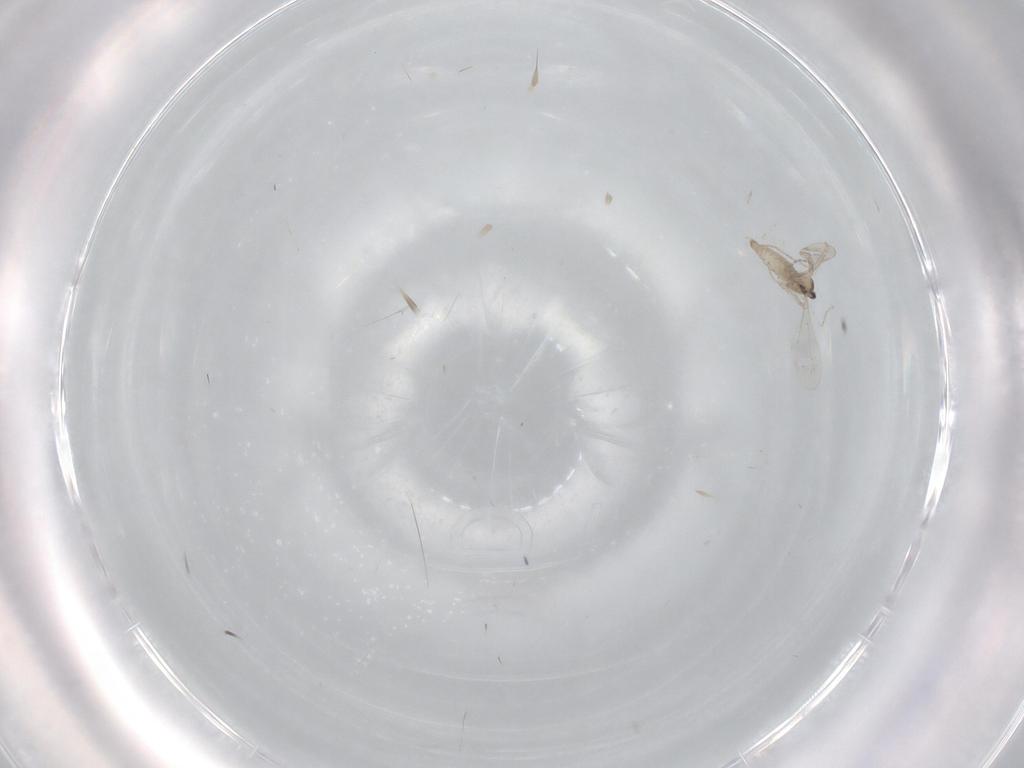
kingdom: Animalia
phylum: Arthropoda
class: Insecta
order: Diptera
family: Cecidomyiidae
